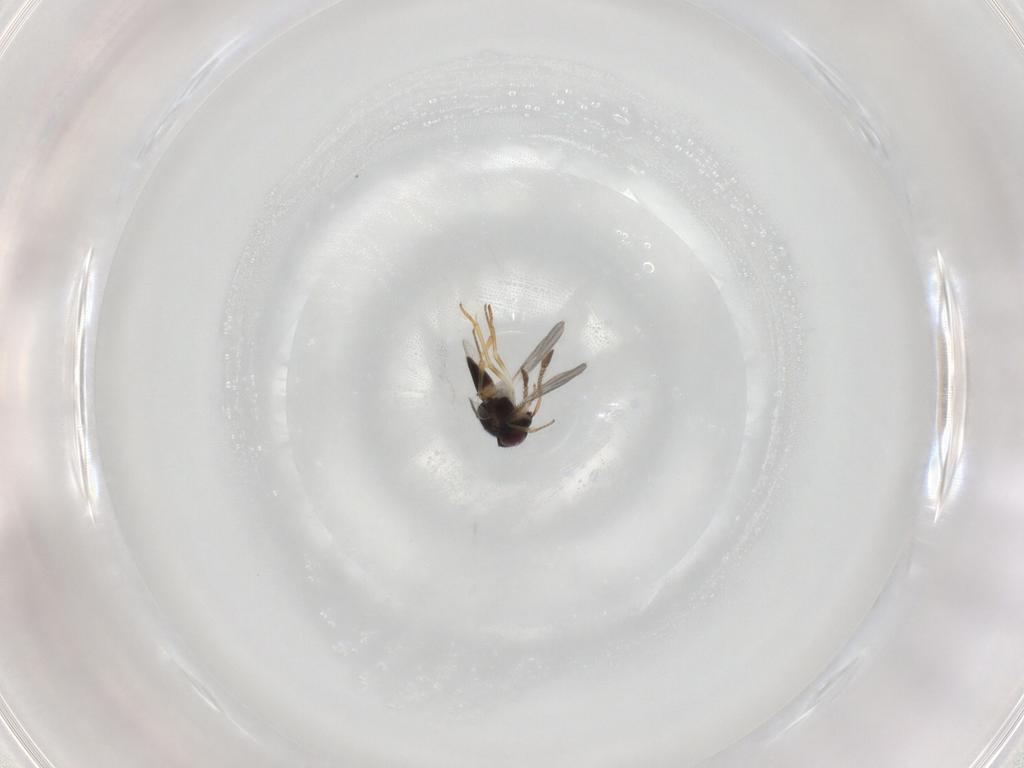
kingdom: Animalia
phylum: Arthropoda
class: Insecta
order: Hymenoptera
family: Encyrtidae
